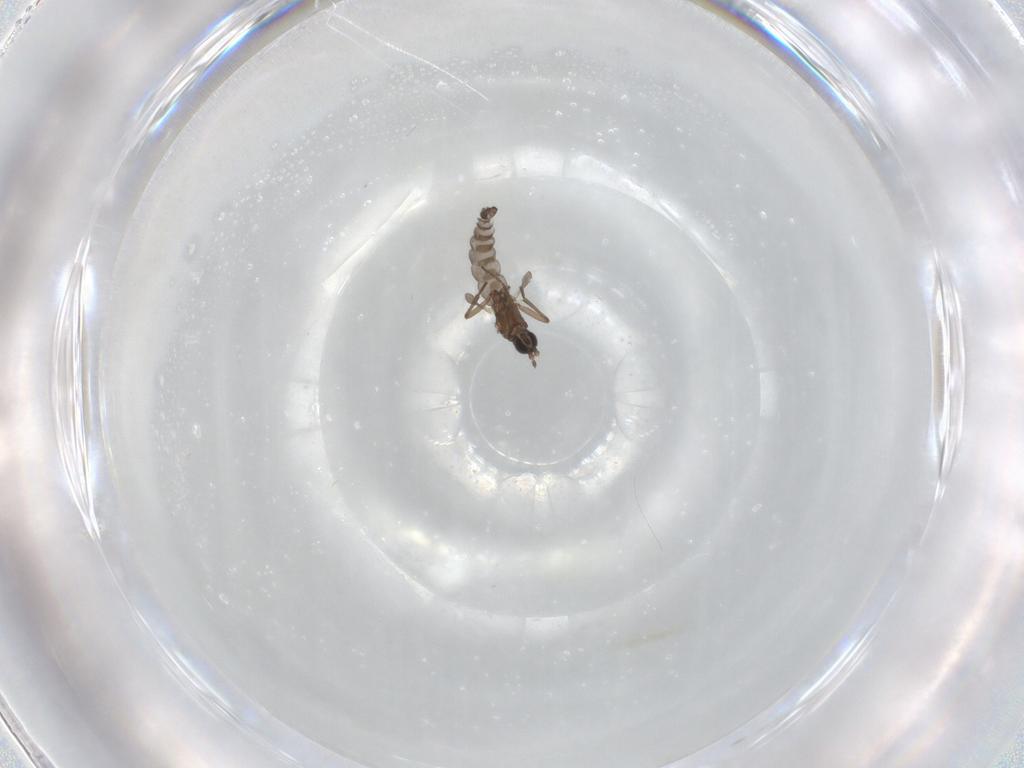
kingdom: Animalia
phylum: Arthropoda
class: Insecta
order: Diptera
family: Sciaridae
